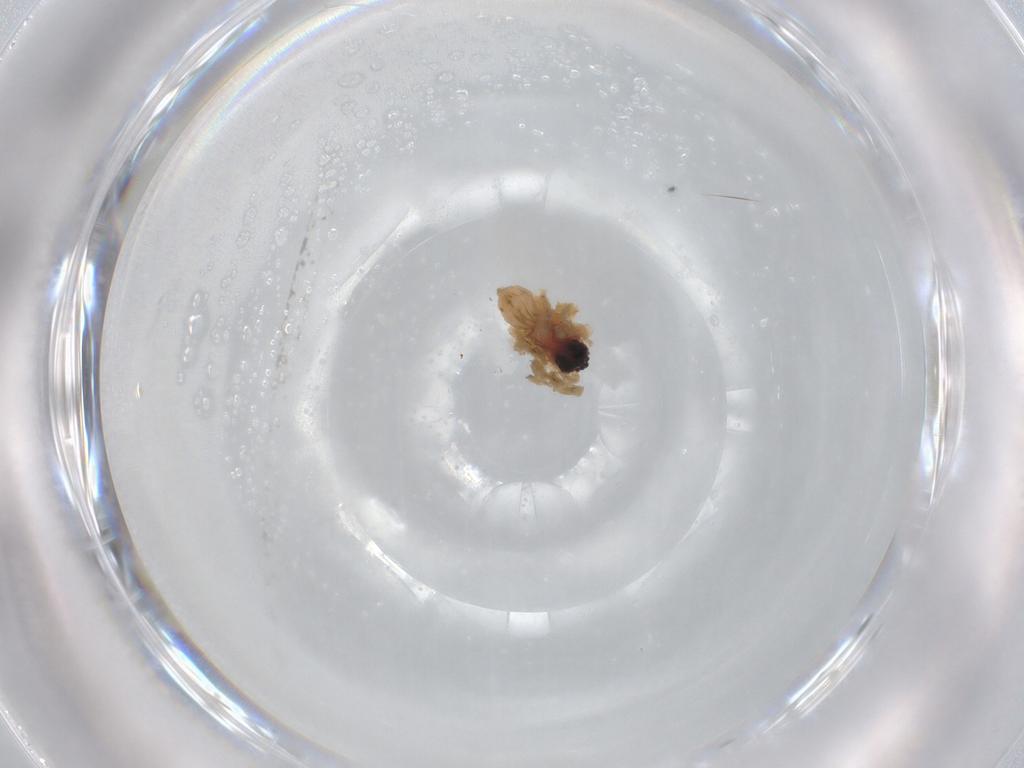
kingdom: Animalia
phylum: Arthropoda
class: Arachnida
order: Araneae
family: Lycosidae
